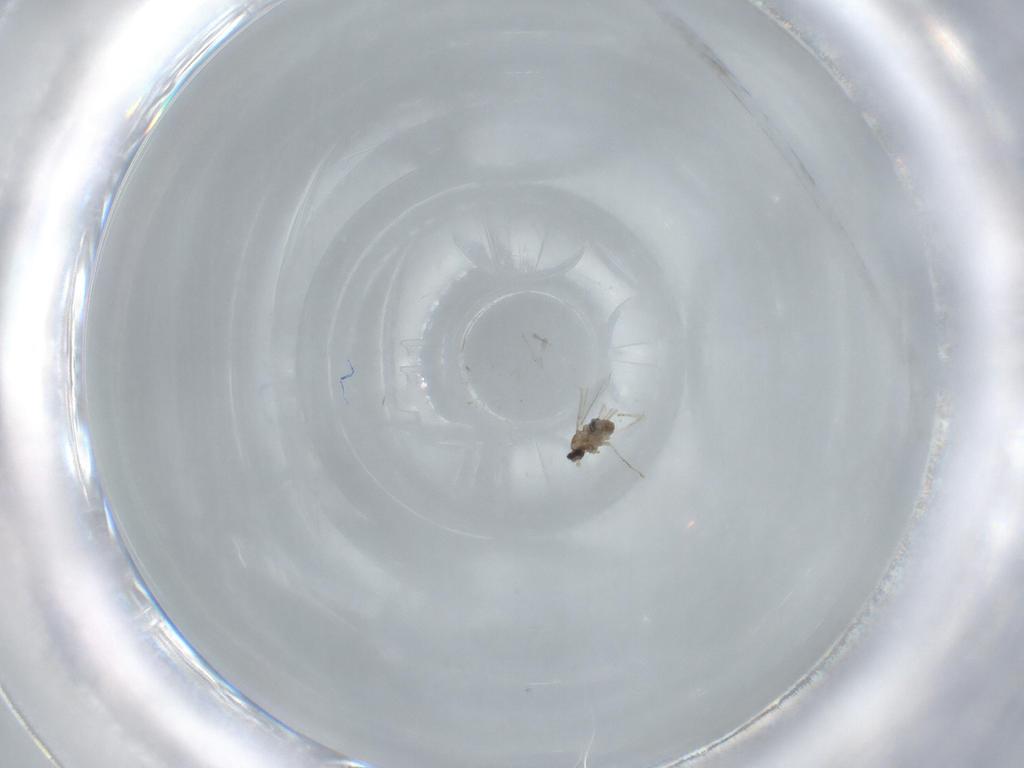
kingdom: Animalia
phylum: Arthropoda
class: Insecta
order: Diptera
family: Cecidomyiidae
